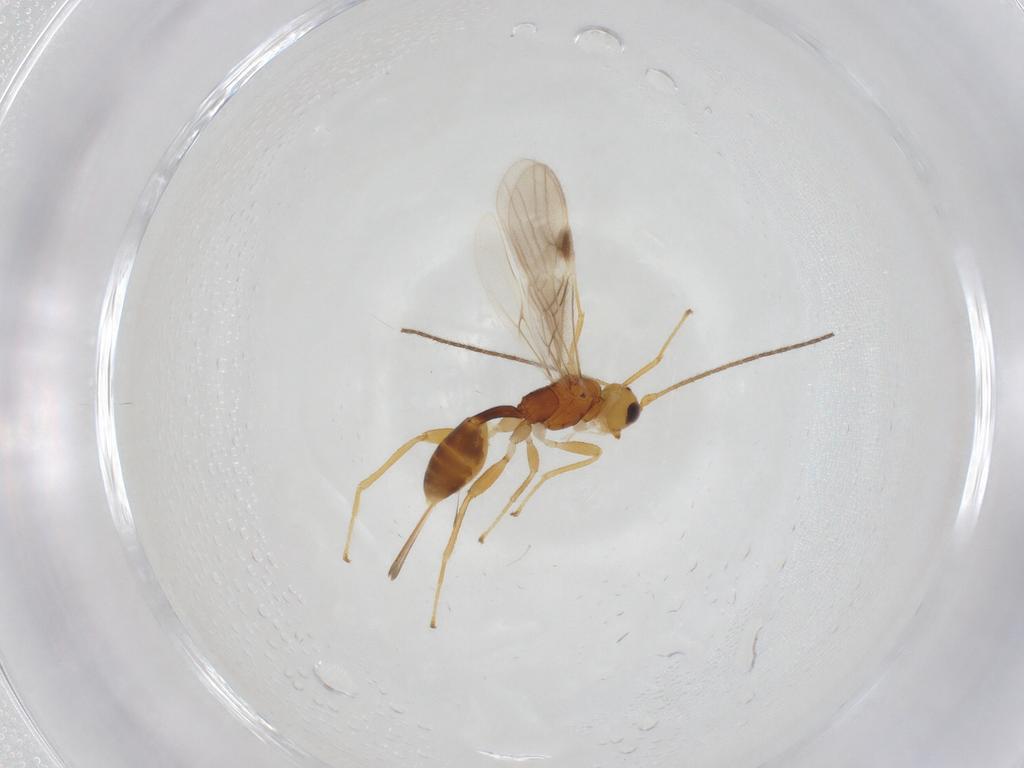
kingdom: Animalia
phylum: Arthropoda
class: Insecta
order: Hymenoptera
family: Braconidae
